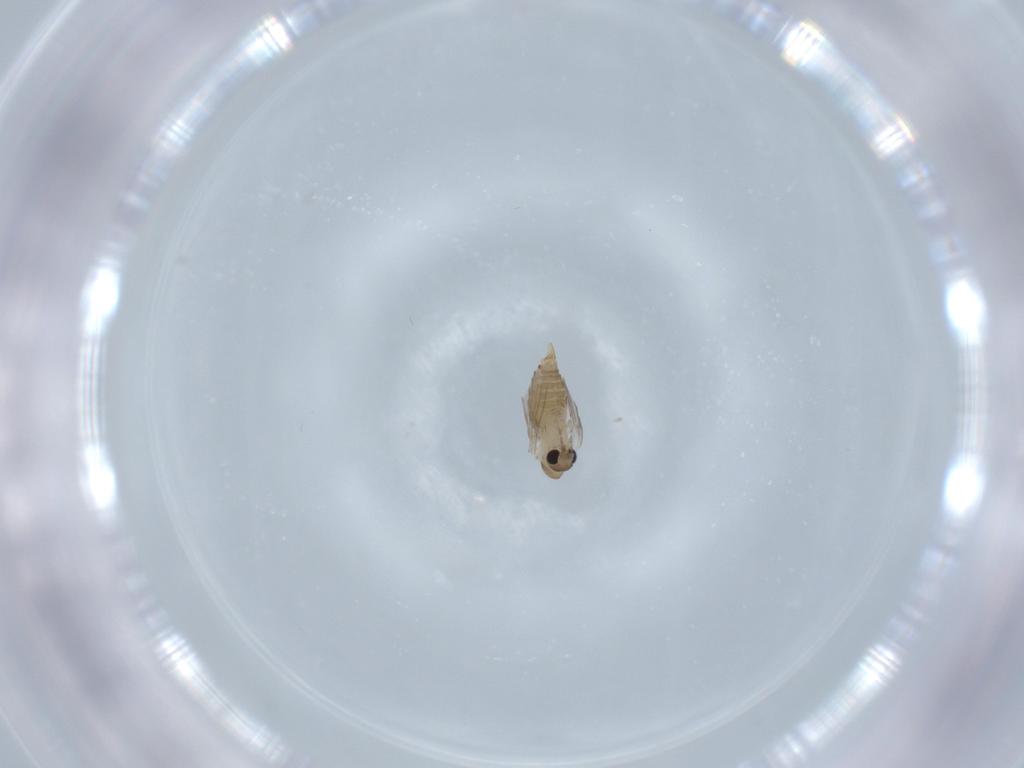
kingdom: Animalia
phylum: Arthropoda
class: Insecta
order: Diptera
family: Psychodidae
